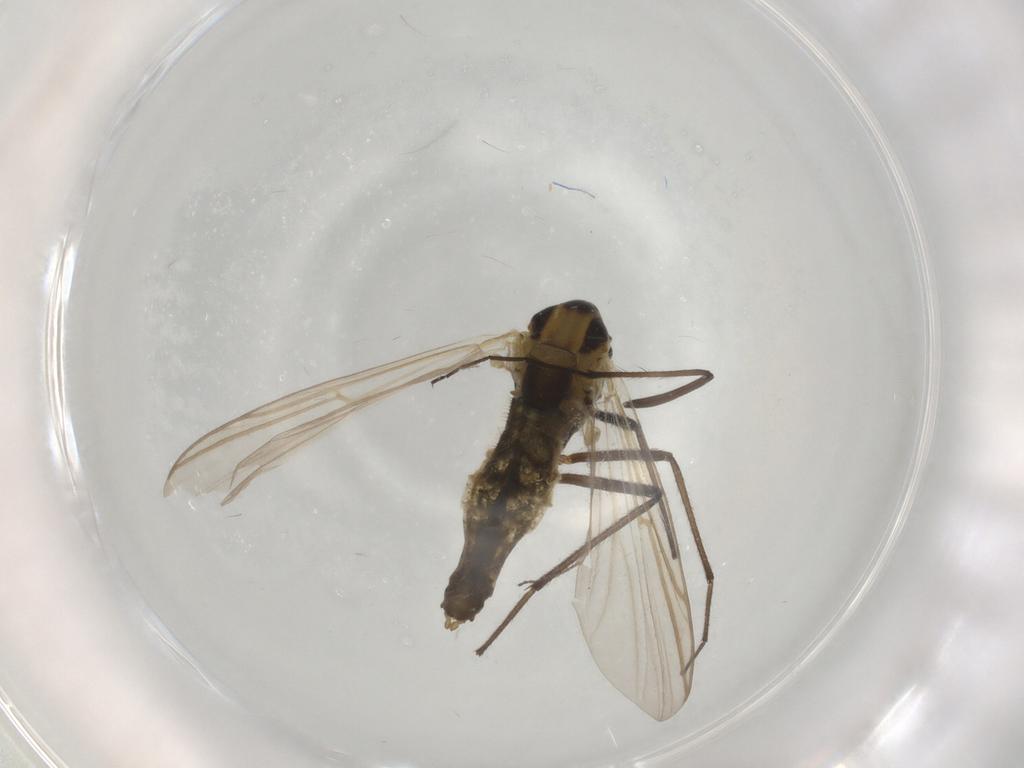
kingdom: Animalia
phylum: Arthropoda
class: Insecta
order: Diptera
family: Chironomidae
